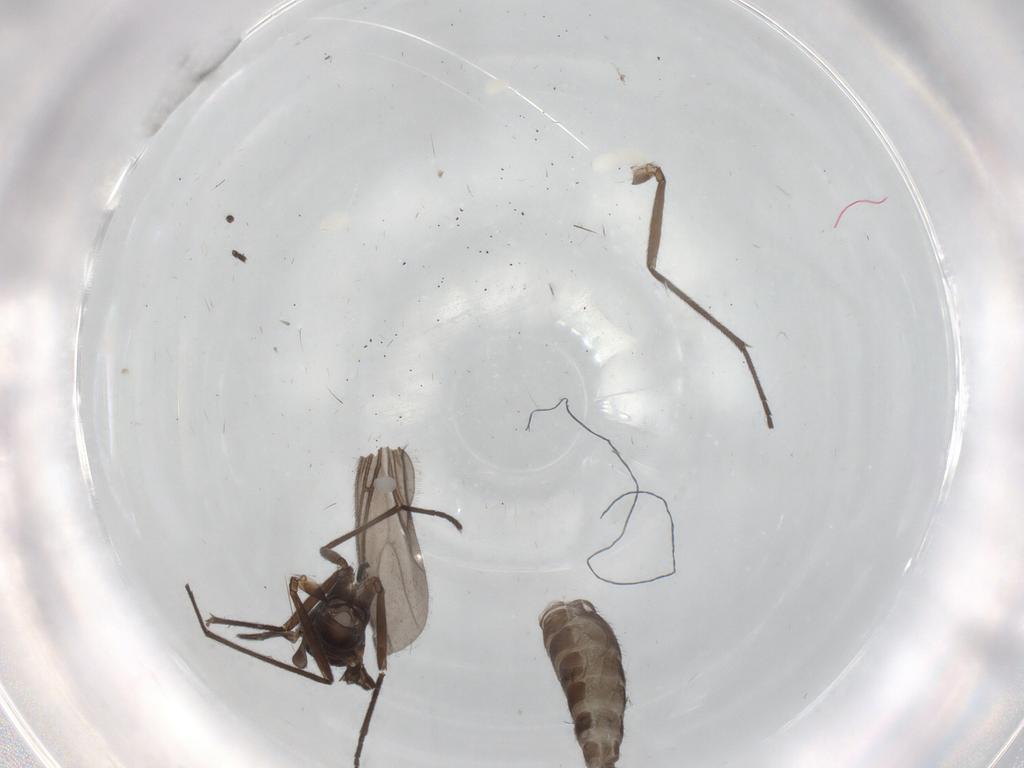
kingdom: Animalia
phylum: Arthropoda
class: Insecta
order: Diptera
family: Sciaridae
